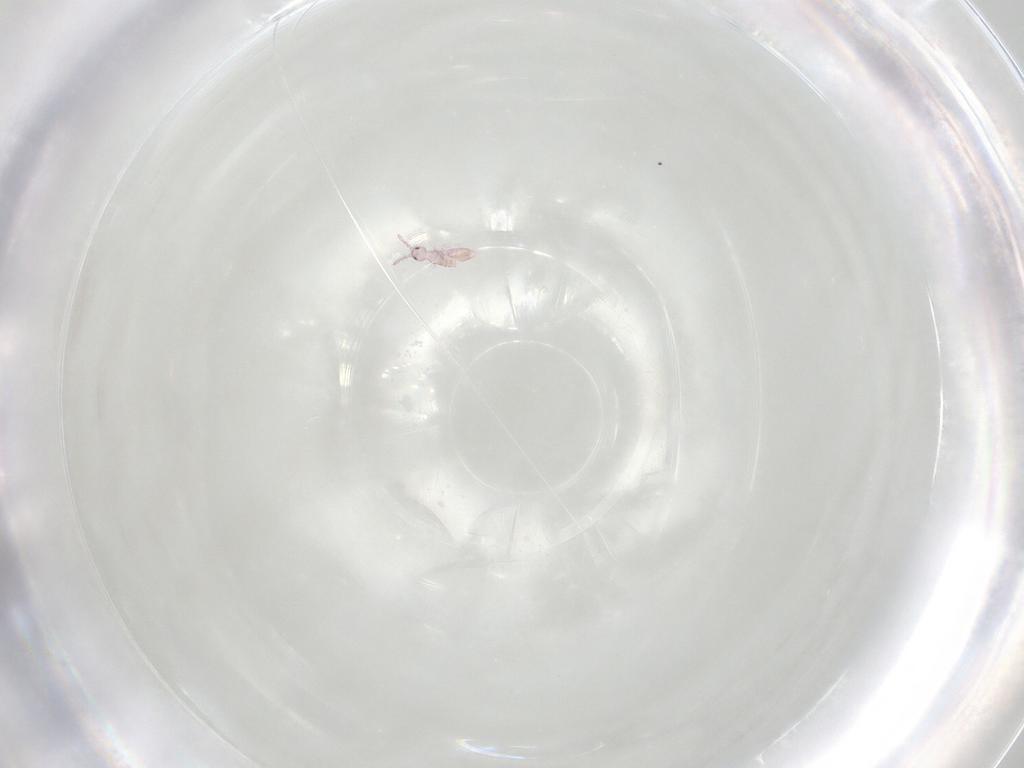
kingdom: Animalia
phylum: Arthropoda
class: Collembola
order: Entomobryomorpha
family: Entomobryidae
